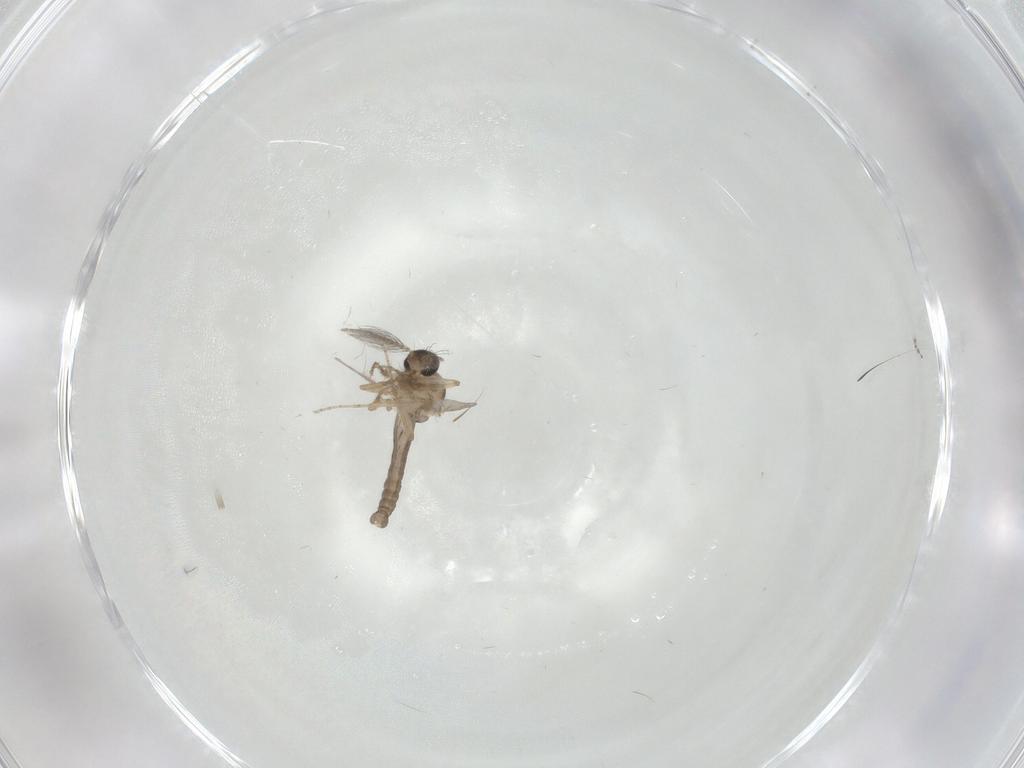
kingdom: Animalia
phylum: Arthropoda
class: Insecta
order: Diptera
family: Ceratopogonidae
